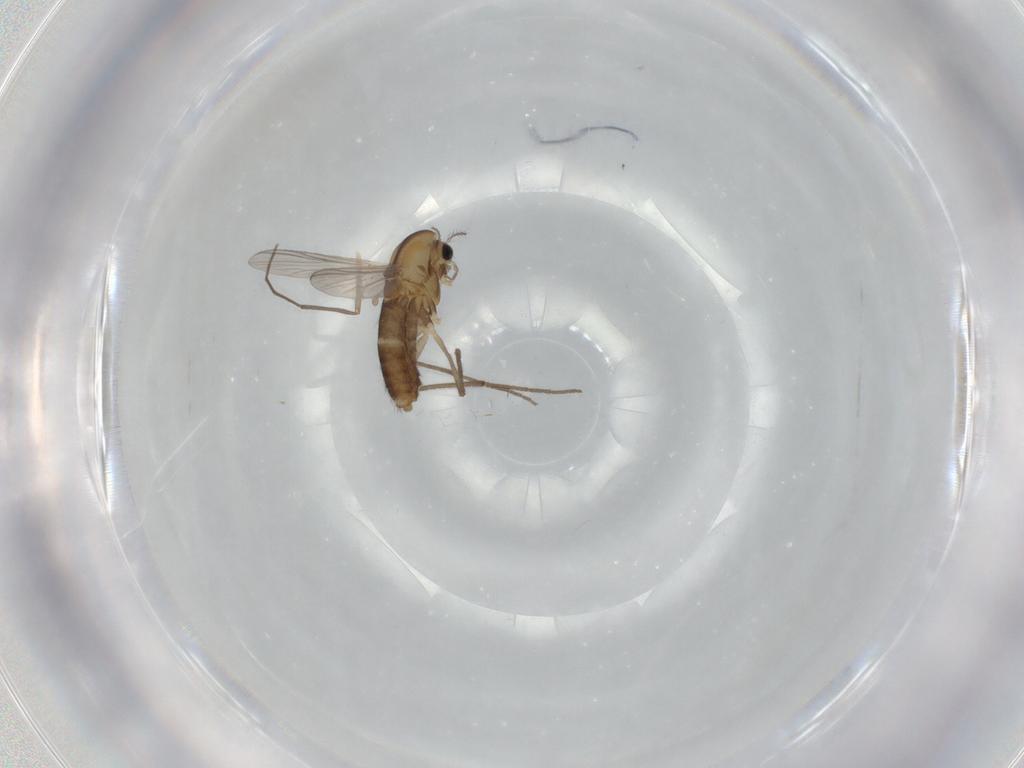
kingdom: Animalia
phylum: Arthropoda
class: Insecta
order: Diptera
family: Chironomidae
